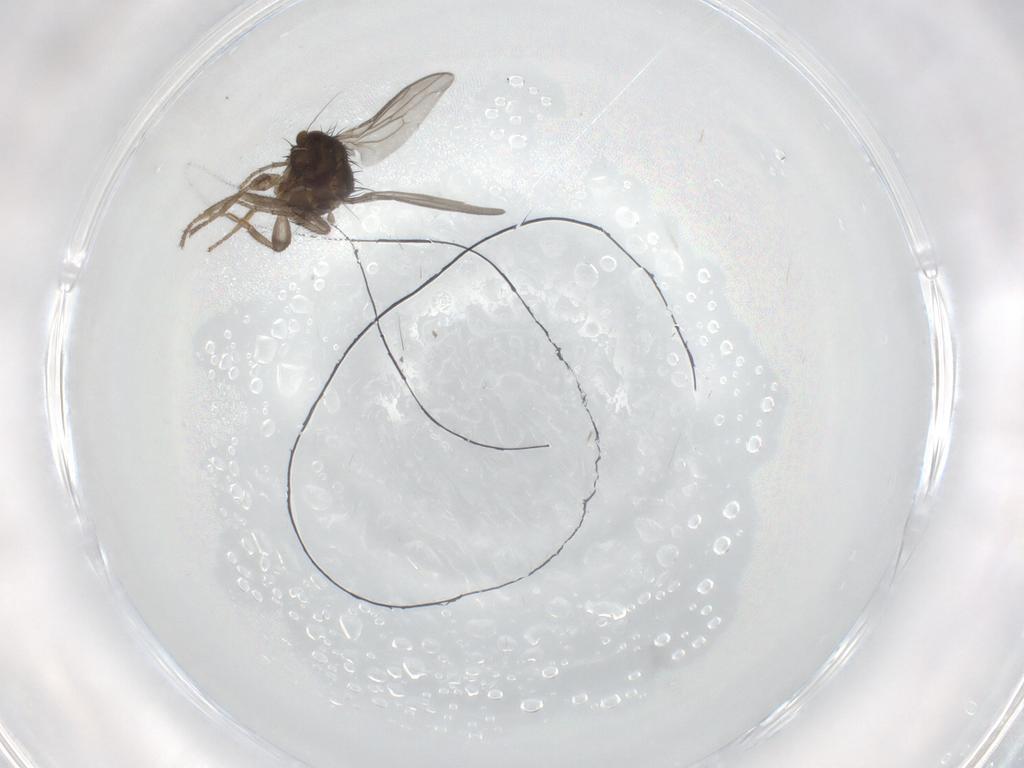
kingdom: Animalia
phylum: Arthropoda
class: Insecta
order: Diptera
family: Sphaeroceridae
